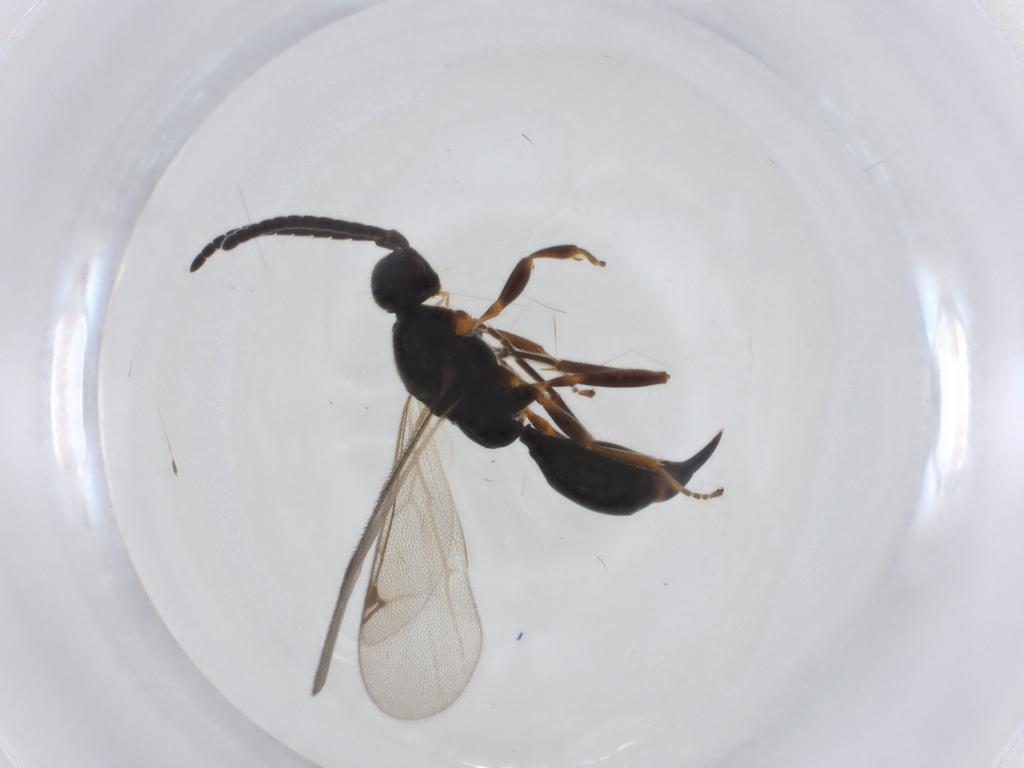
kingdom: Animalia
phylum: Arthropoda
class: Insecta
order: Hymenoptera
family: Proctotrupidae
